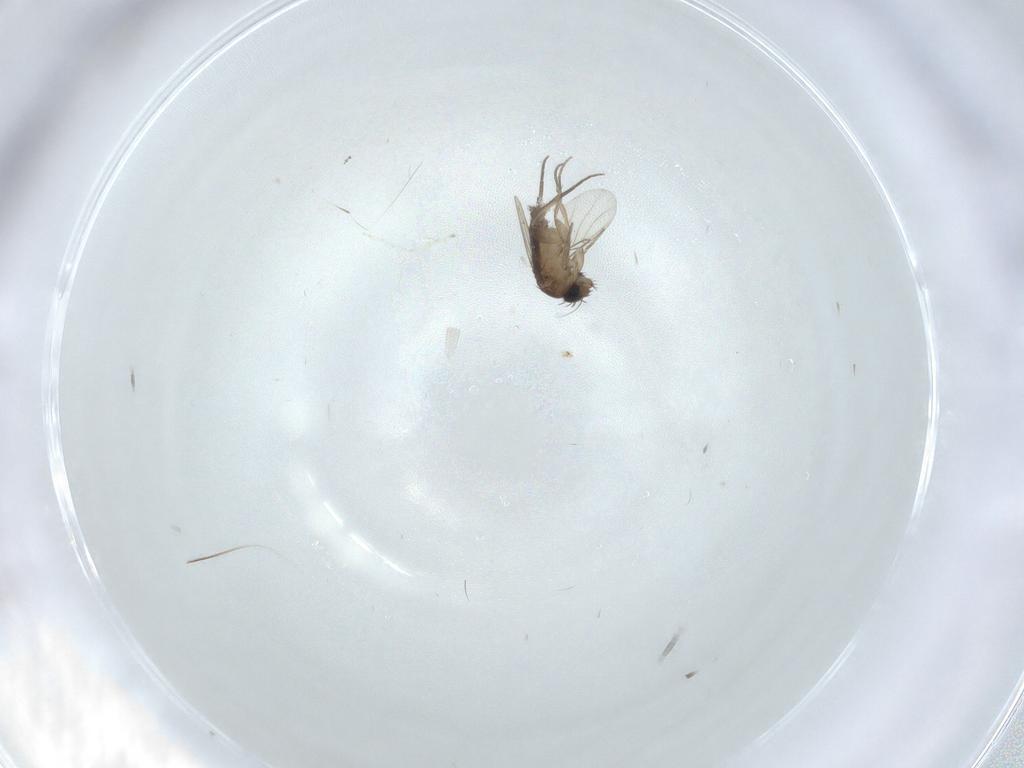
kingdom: Animalia
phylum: Arthropoda
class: Insecta
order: Diptera
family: Phoridae
